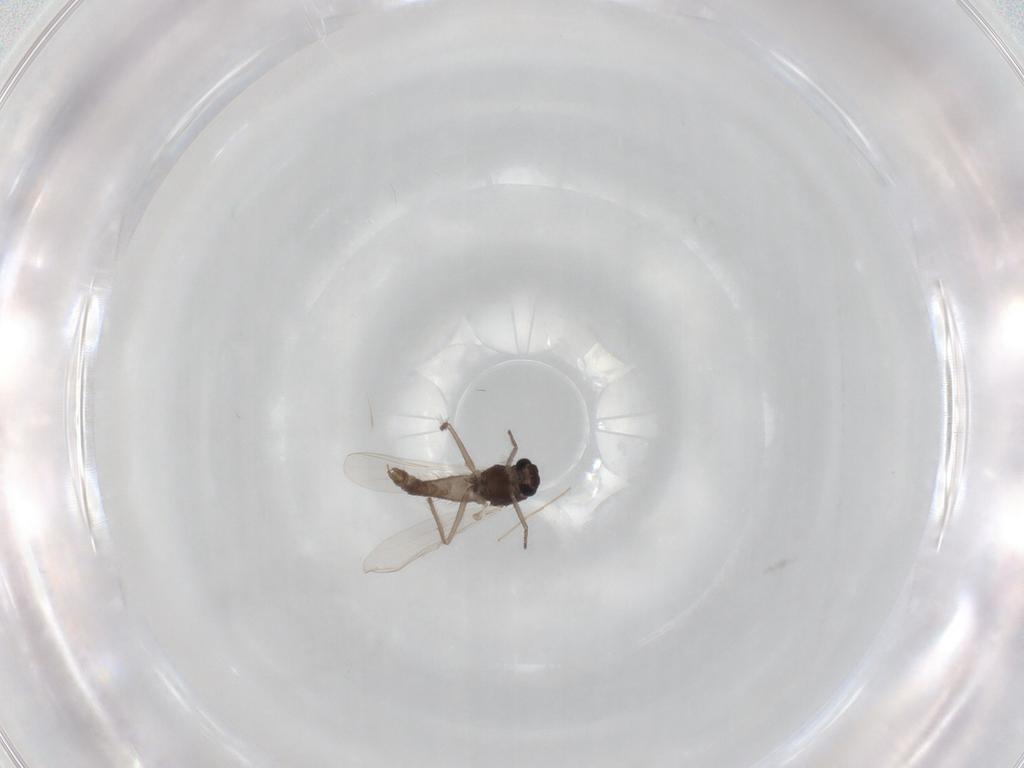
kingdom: Animalia
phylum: Arthropoda
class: Insecta
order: Diptera
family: Chironomidae
